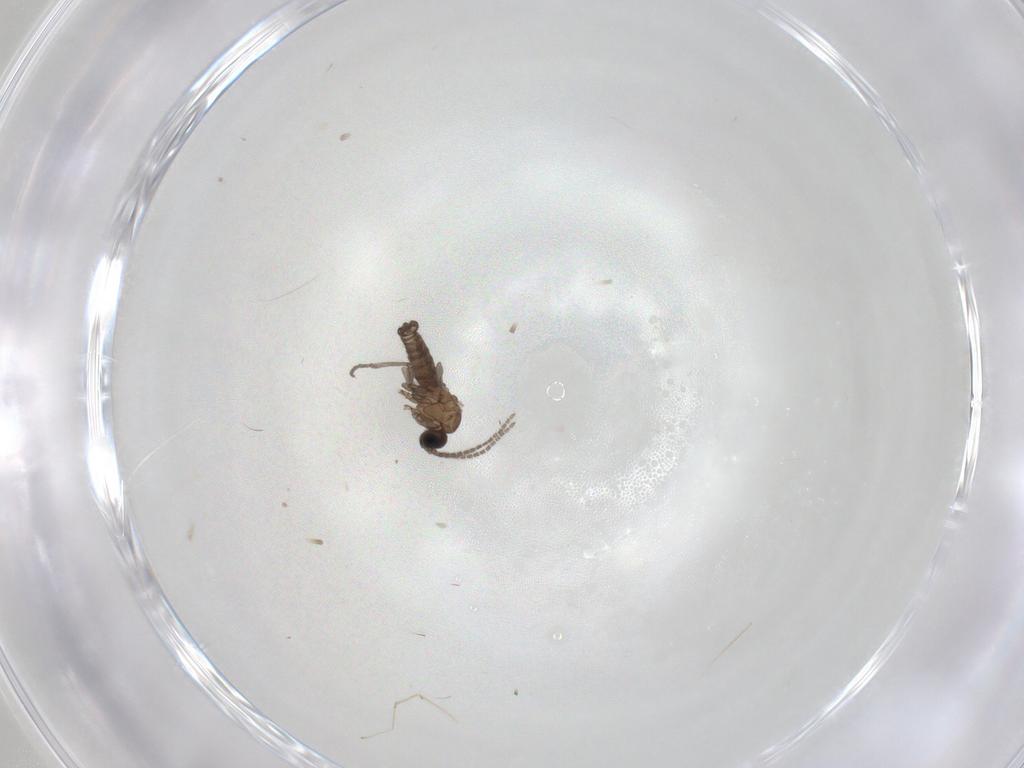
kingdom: Animalia
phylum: Arthropoda
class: Insecta
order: Diptera
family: Sciaridae
